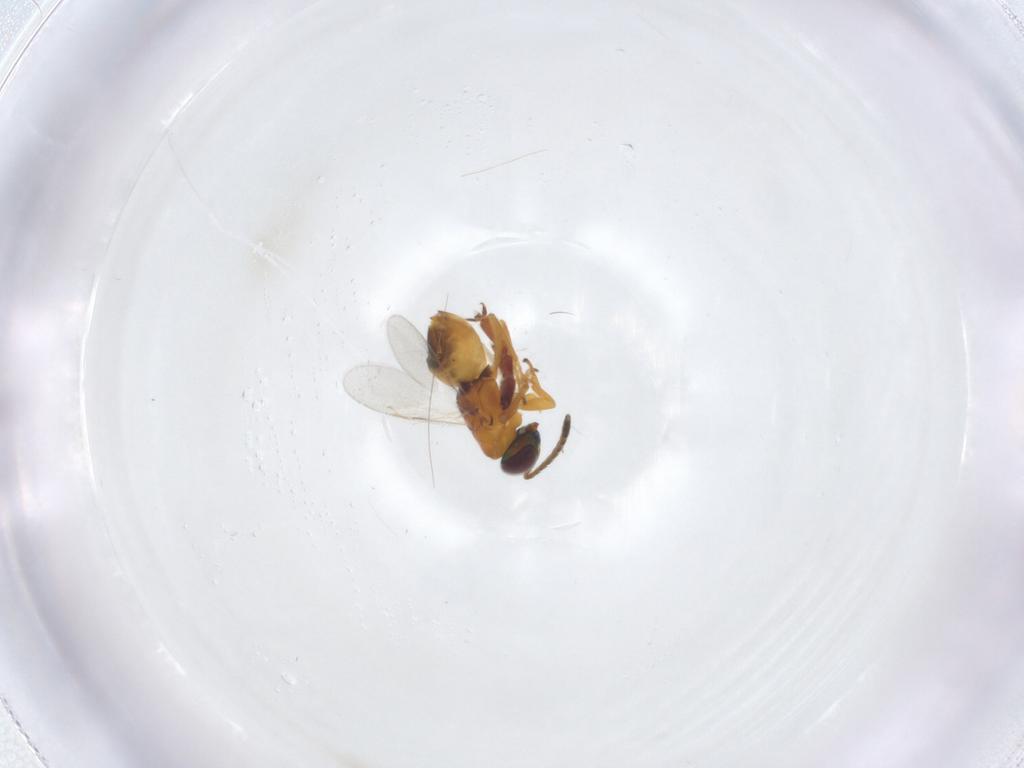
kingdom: Animalia
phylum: Arthropoda
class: Insecta
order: Hymenoptera
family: Encyrtidae
